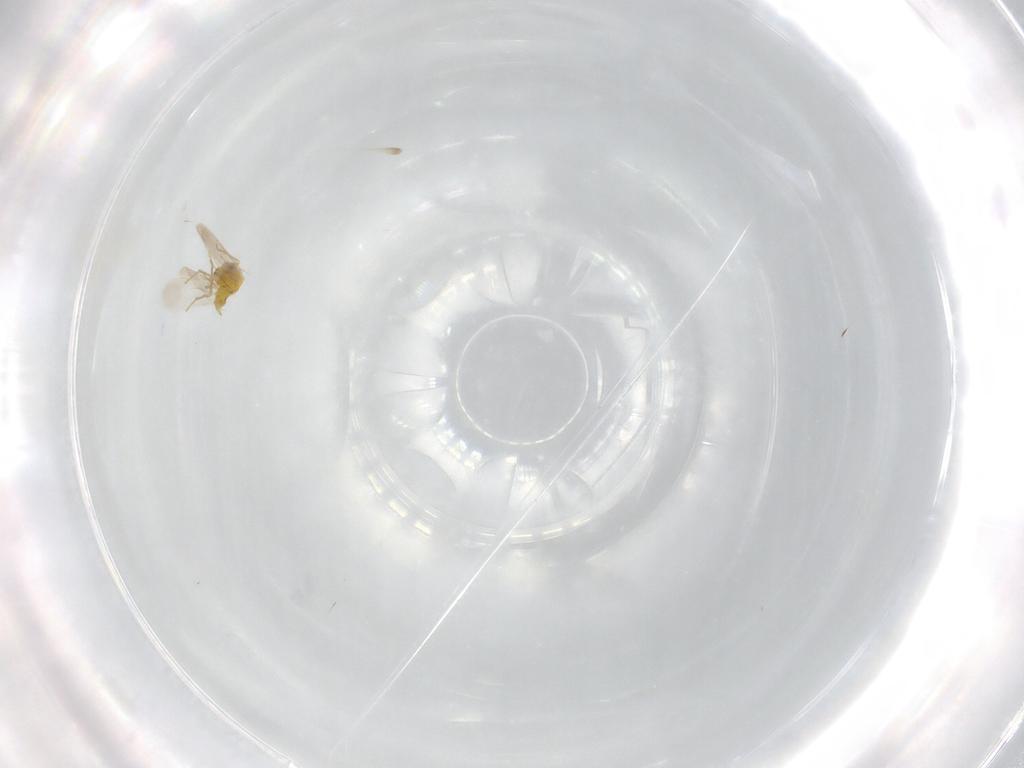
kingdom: Animalia
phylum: Arthropoda
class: Insecta
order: Hemiptera
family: Aleyrodidae
